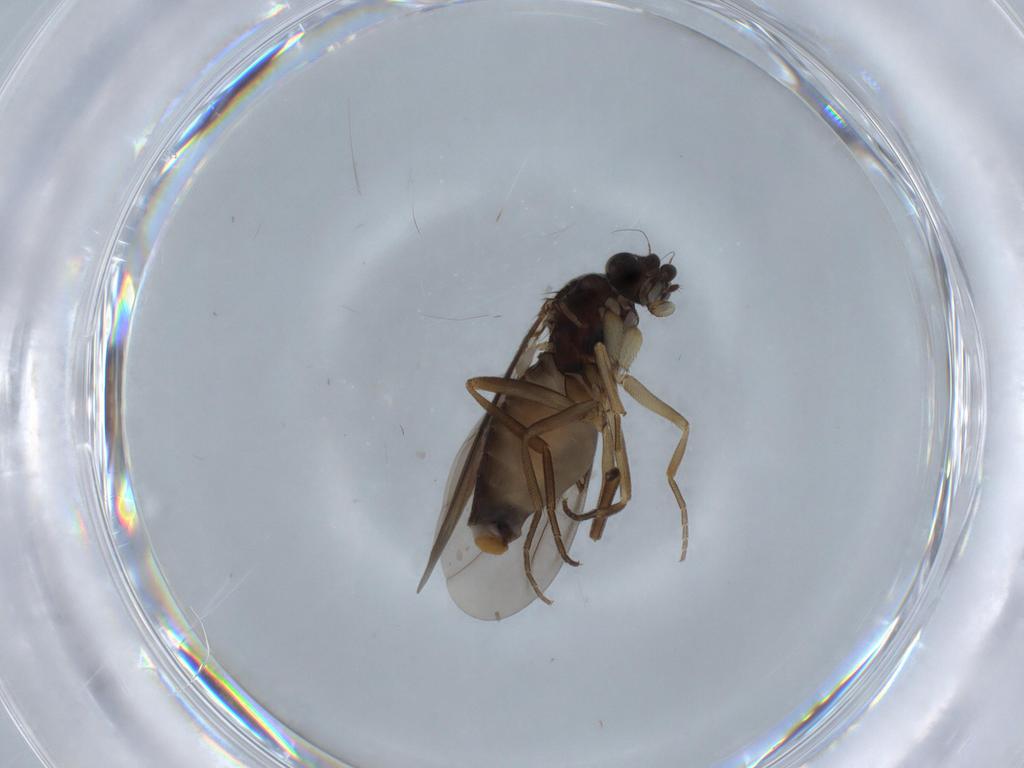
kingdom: Animalia
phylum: Arthropoda
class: Insecta
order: Diptera
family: Phoridae
